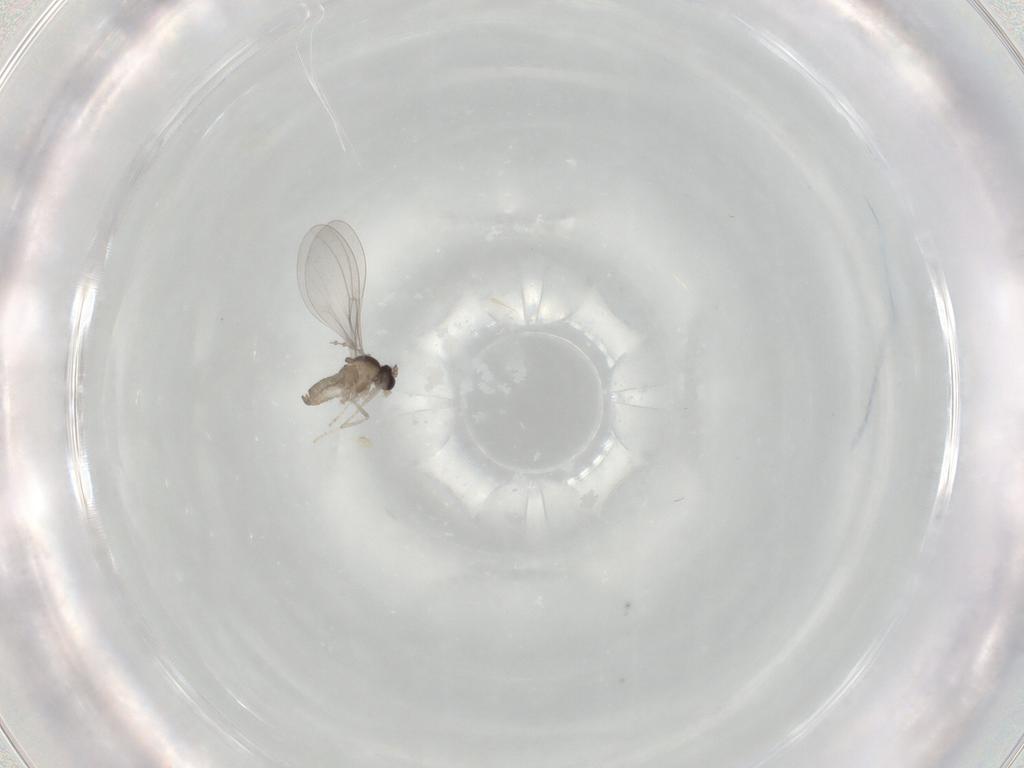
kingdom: Animalia
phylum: Arthropoda
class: Insecta
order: Diptera
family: Cecidomyiidae
